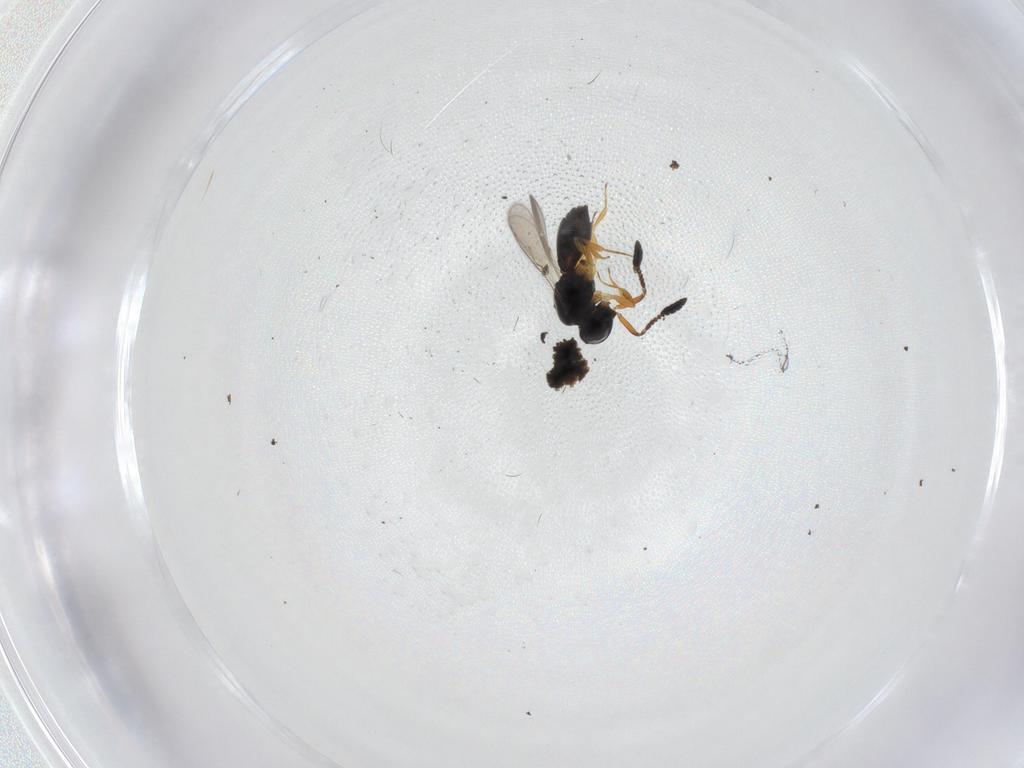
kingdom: Animalia
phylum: Arthropoda
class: Insecta
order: Hymenoptera
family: Scelionidae
